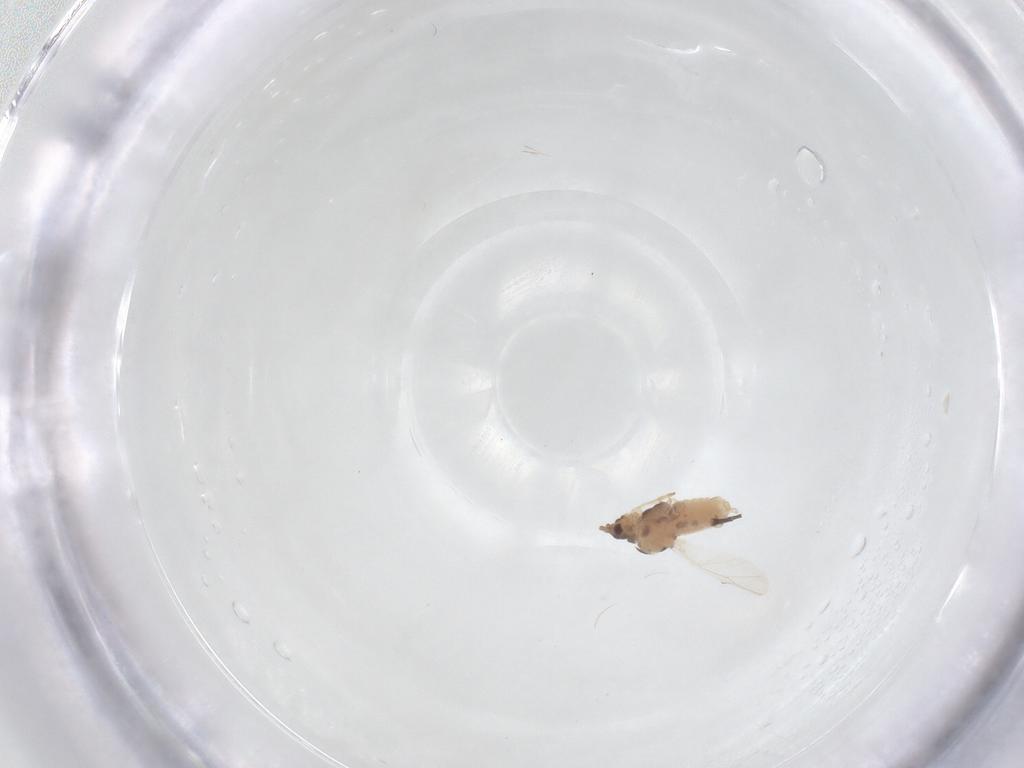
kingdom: Animalia
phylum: Arthropoda
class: Insecta
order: Hemiptera
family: Aphididae
